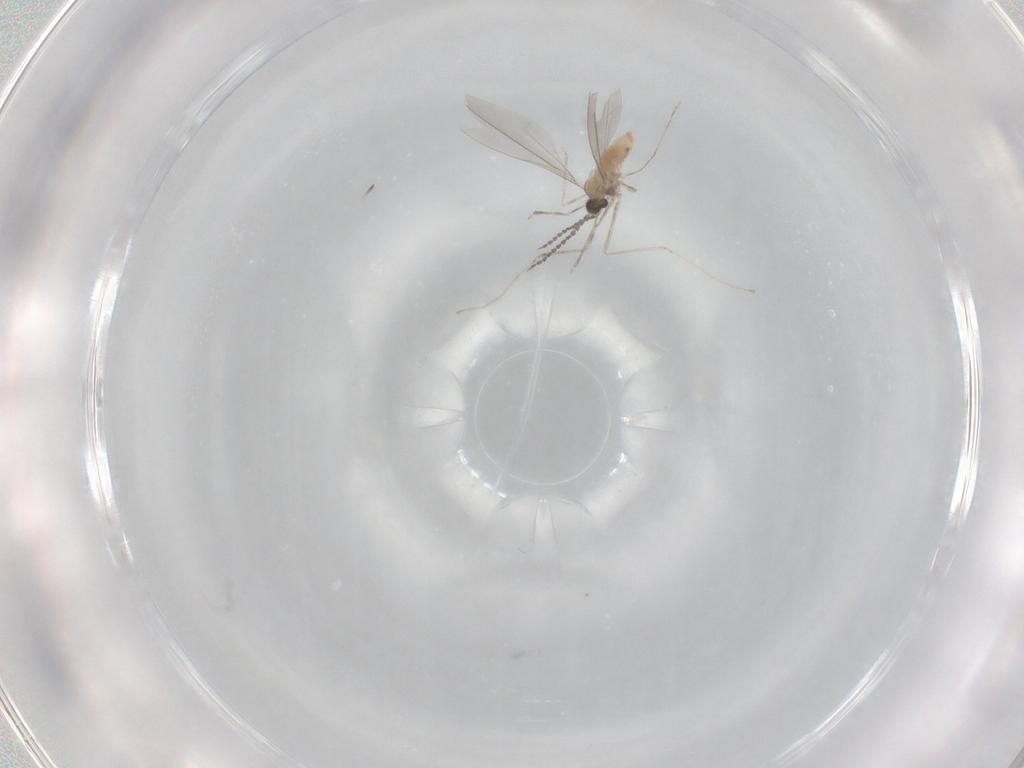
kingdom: Animalia
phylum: Arthropoda
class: Insecta
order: Diptera
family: Cecidomyiidae
